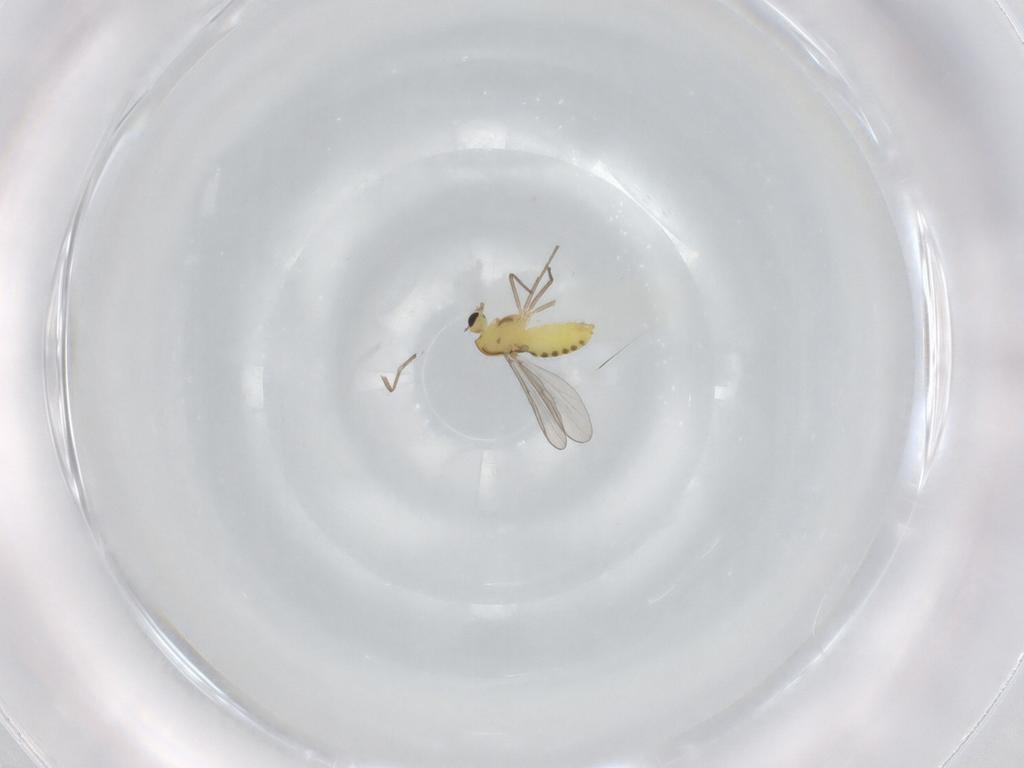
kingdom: Animalia
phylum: Arthropoda
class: Insecta
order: Diptera
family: Chironomidae
